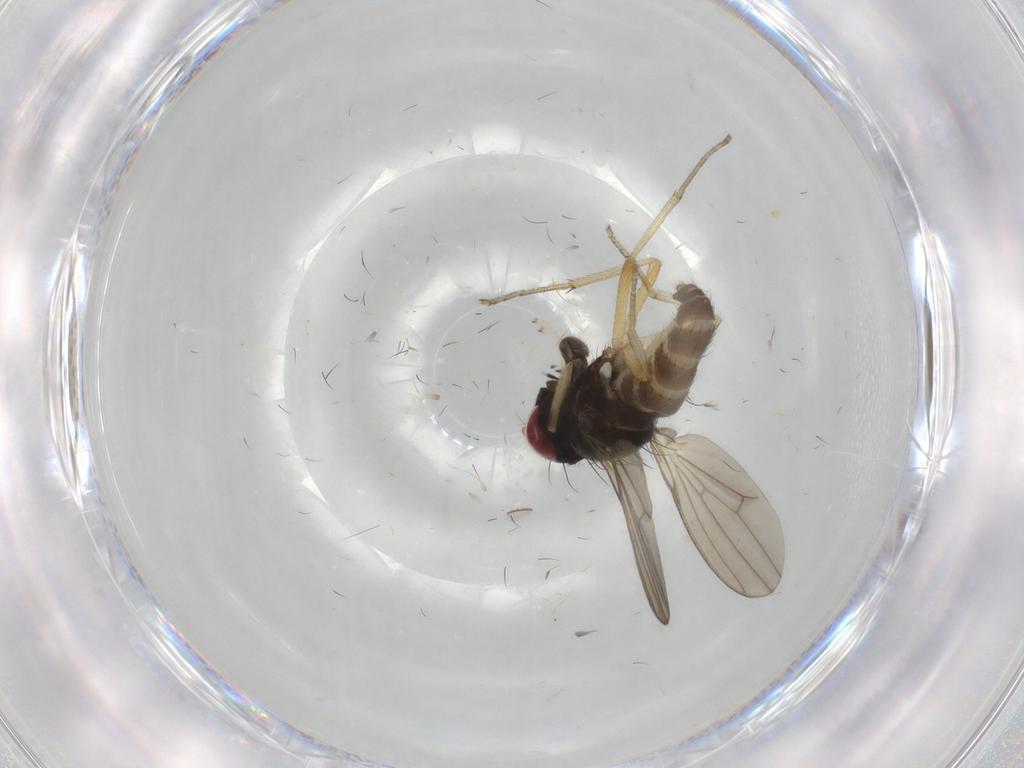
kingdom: Animalia
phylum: Arthropoda
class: Insecta
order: Diptera
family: Lauxaniidae
